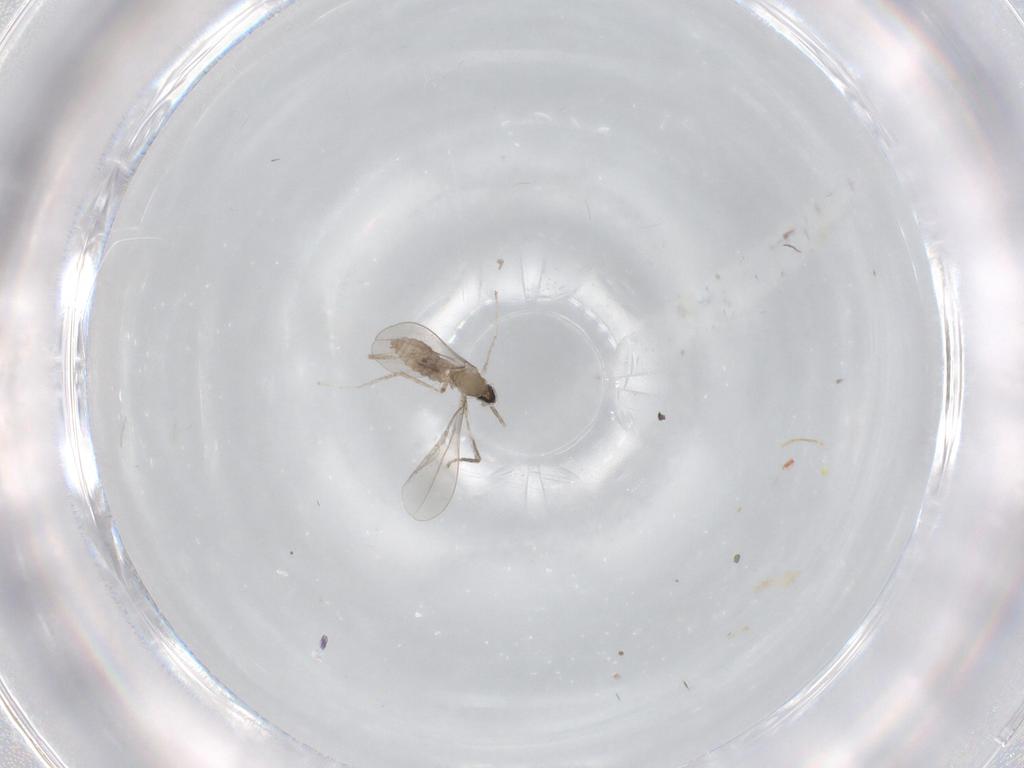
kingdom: Animalia
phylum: Arthropoda
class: Insecta
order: Diptera
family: Cecidomyiidae
